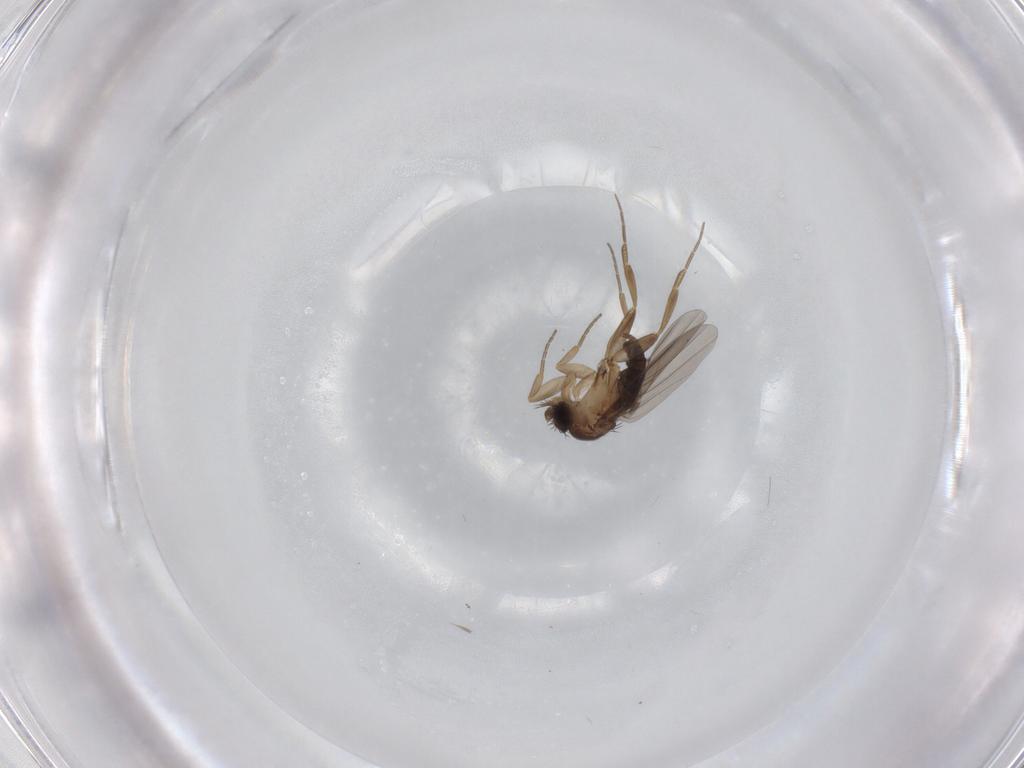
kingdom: Animalia
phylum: Arthropoda
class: Insecta
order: Diptera
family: Cecidomyiidae
